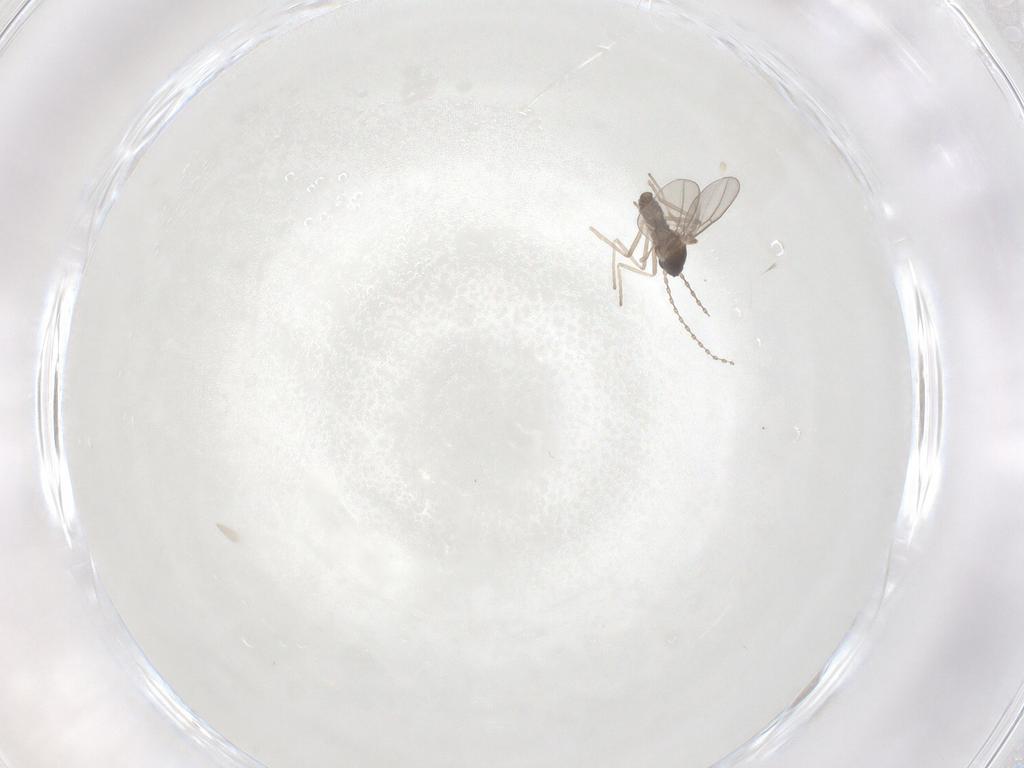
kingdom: Animalia
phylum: Arthropoda
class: Insecta
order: Diptera
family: Cecidomyiidae
